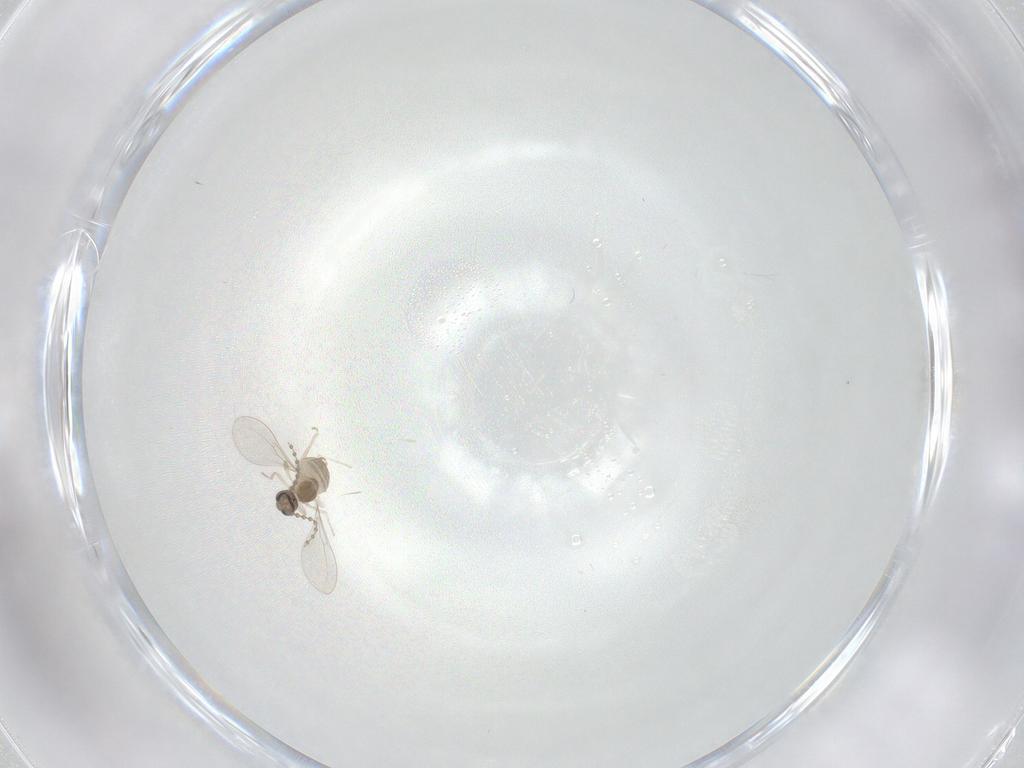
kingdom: Animalia
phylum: Arthropoda
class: Insecta
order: Diptera
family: Cecidomyiidae
